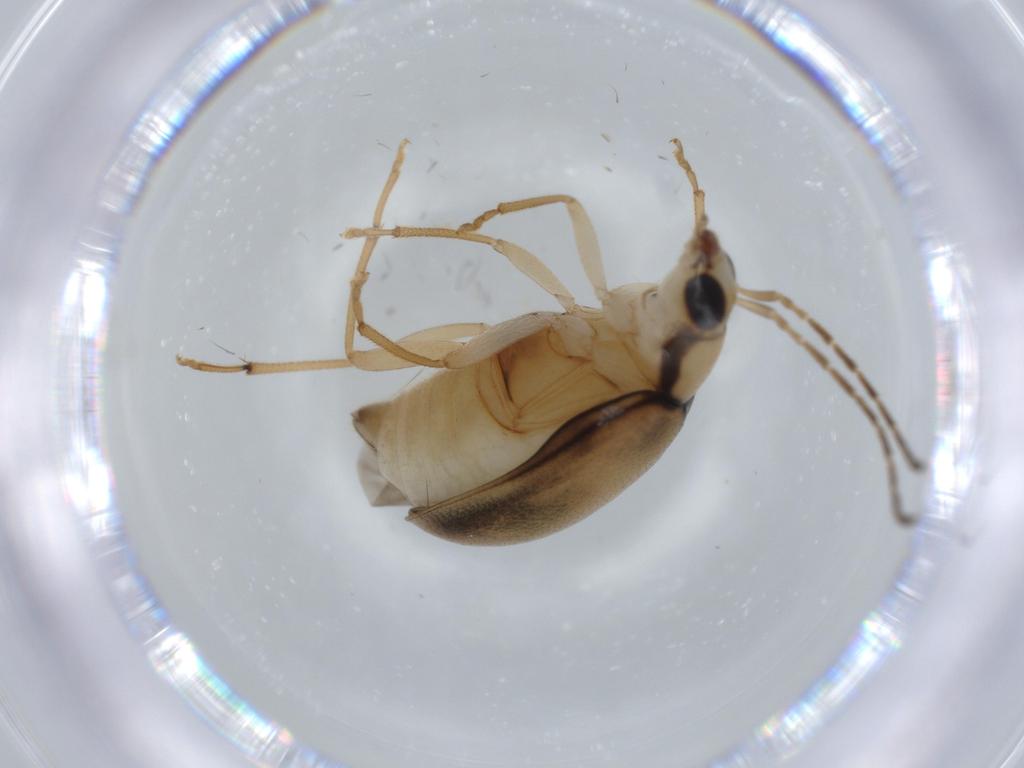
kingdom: Animalia
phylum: Arthropoda
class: Insecta
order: Coleoptera
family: Chrysomelidae
